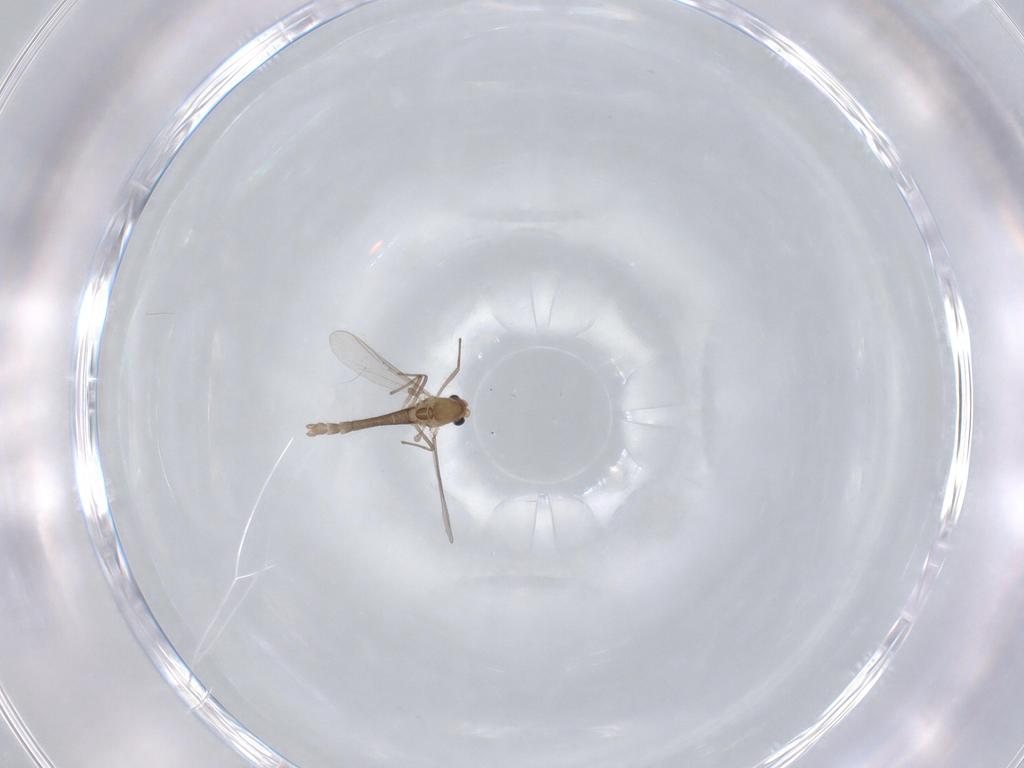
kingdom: Animalia
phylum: Arthropoda
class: Insecta
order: Diptera
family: Chironomidae
